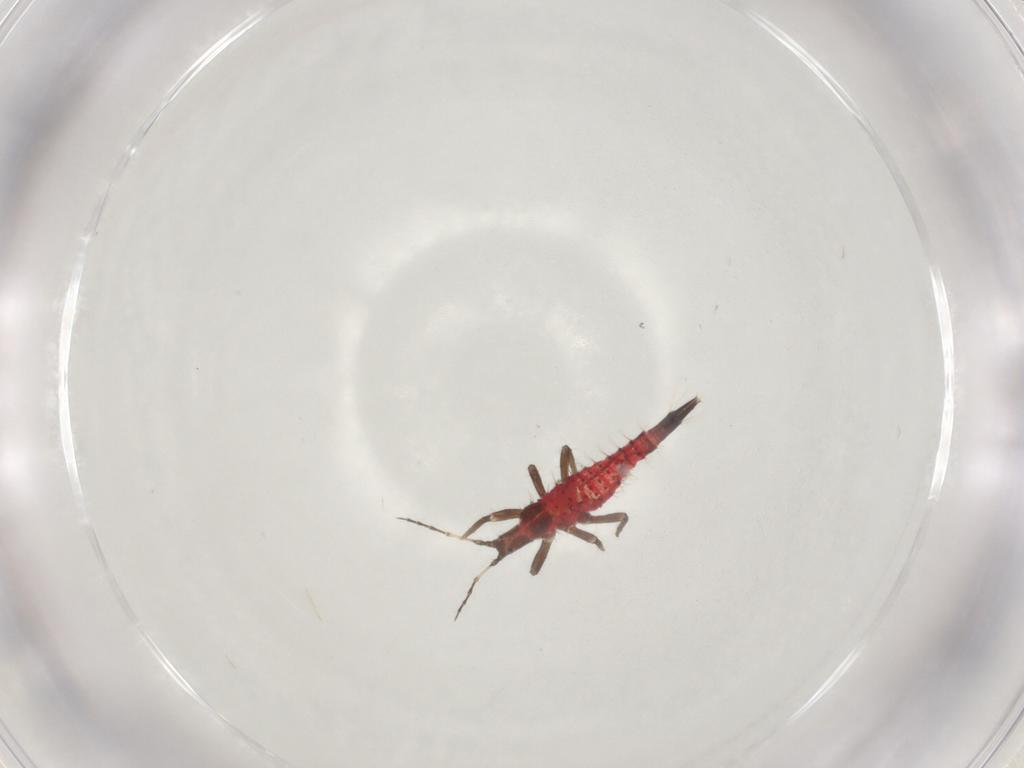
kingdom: Animalia
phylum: Arthropoda
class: Insecta
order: Thysanoptera
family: Phlaeothripidae
